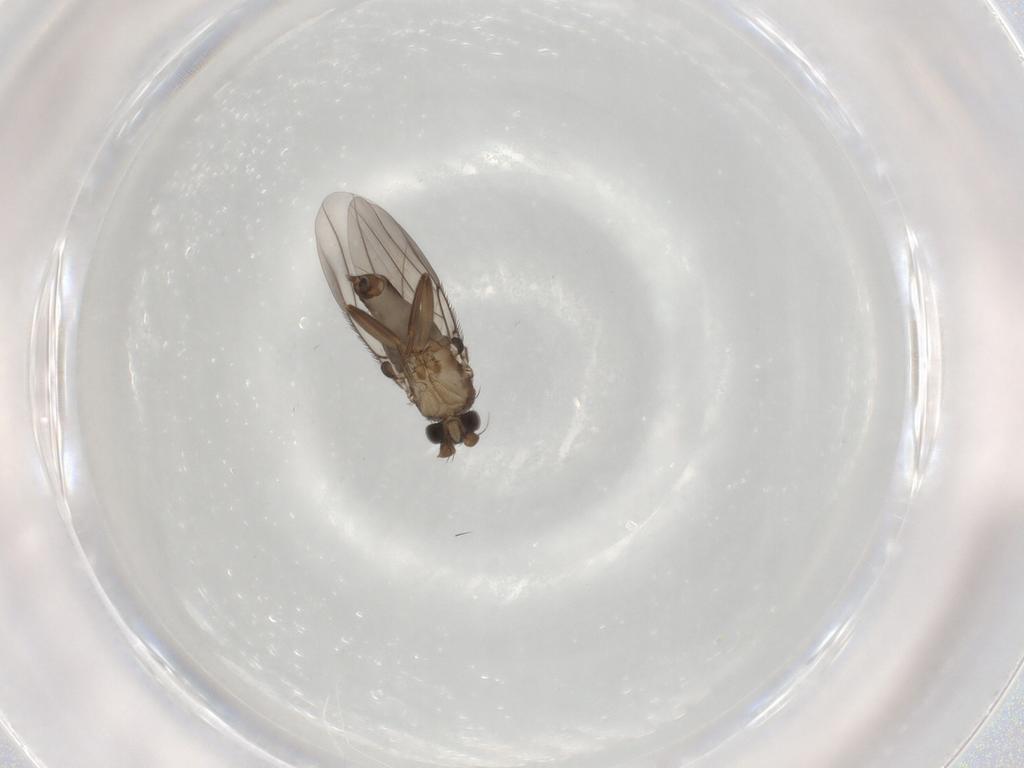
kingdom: Animalia
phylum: Arthropoda
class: Insecta
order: Diptera
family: Phoridae
